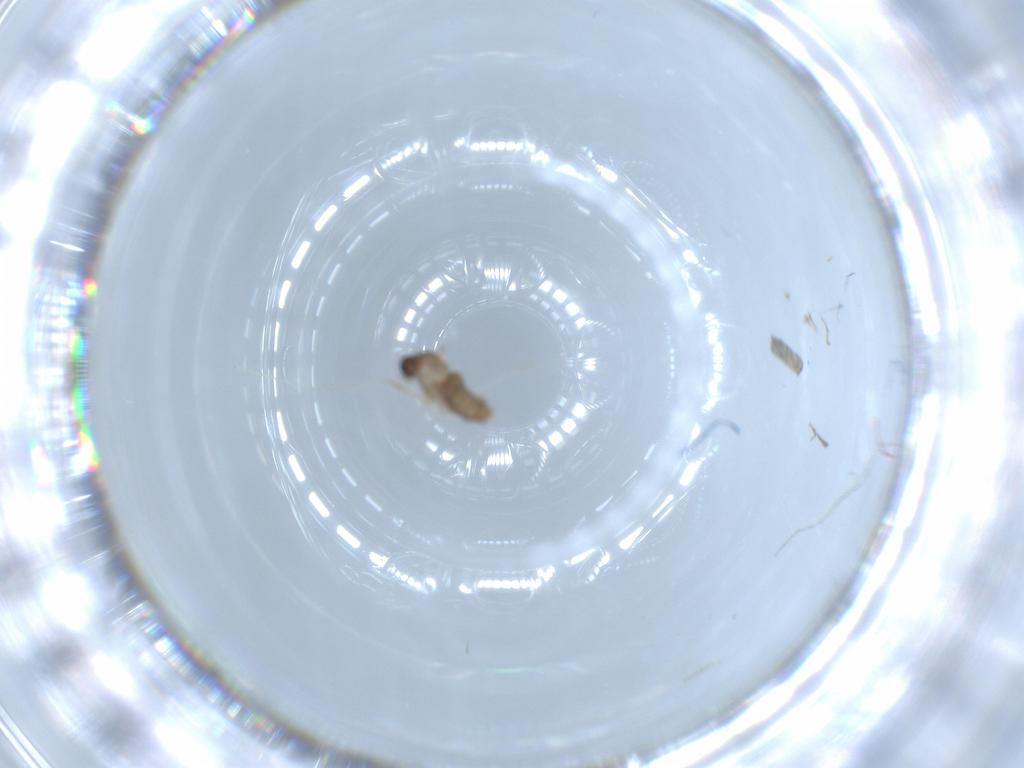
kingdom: Animalia
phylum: Arthropoda
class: Insecta
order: Diptera
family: Cecidomyiidae
